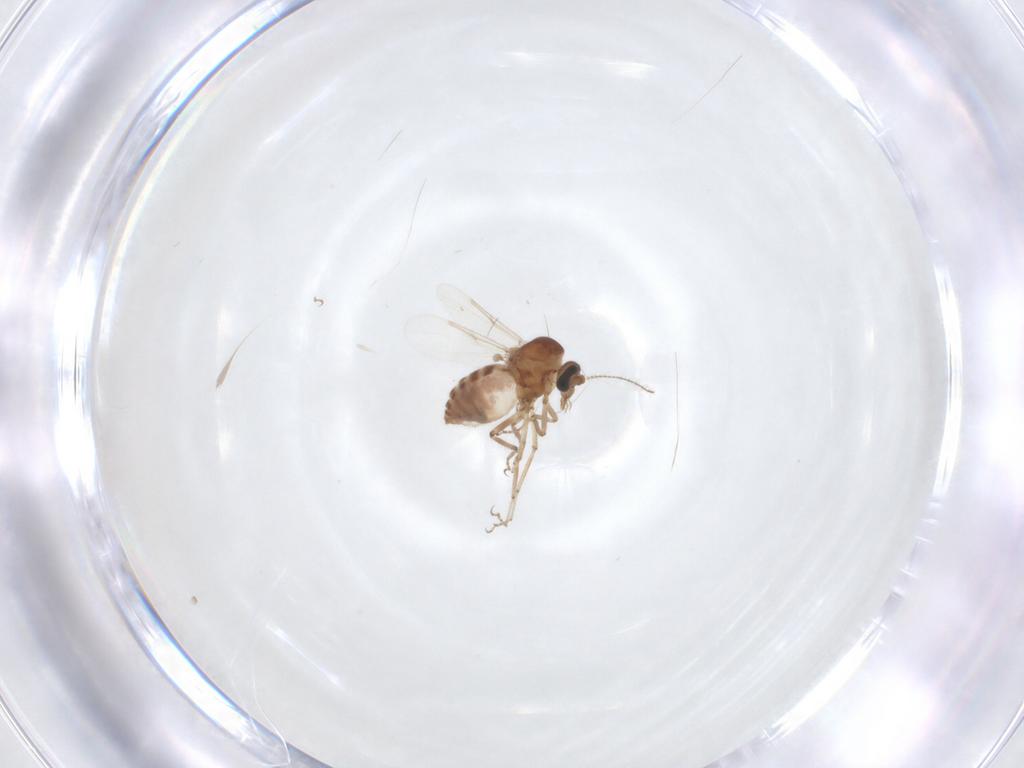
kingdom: Animalia
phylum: Arthropoda
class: Insecta
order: Diptera
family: Ceratopogonidae
